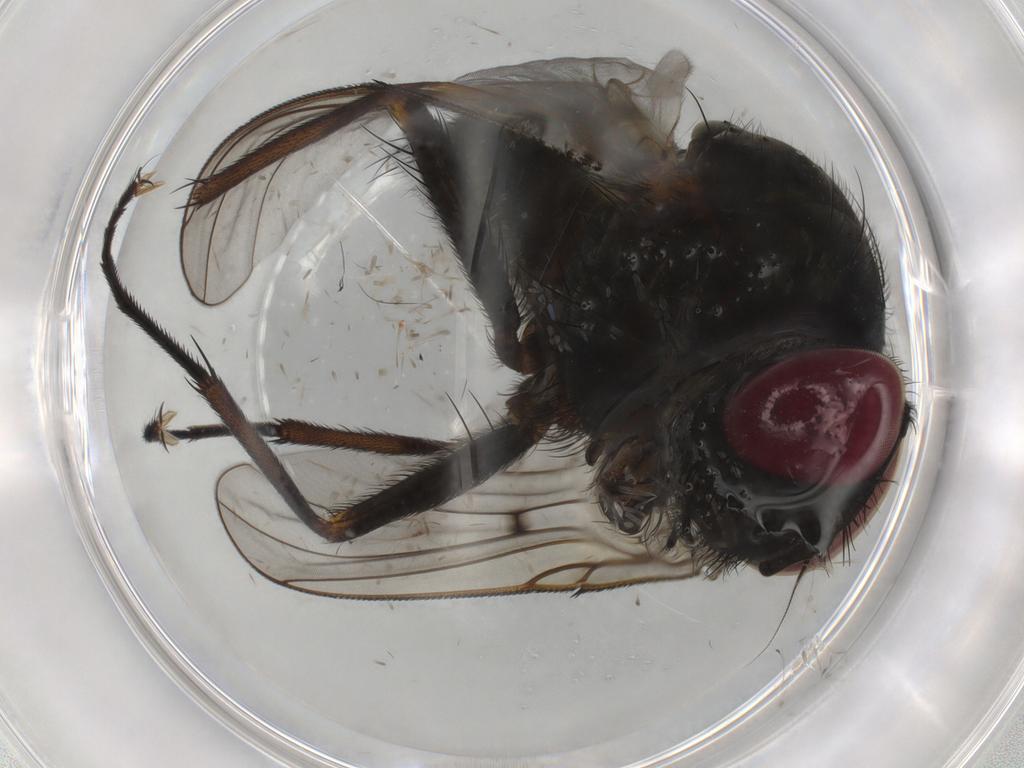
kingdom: Animalia
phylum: Arthropoda
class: Insecta
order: Diptera
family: Muscidae
